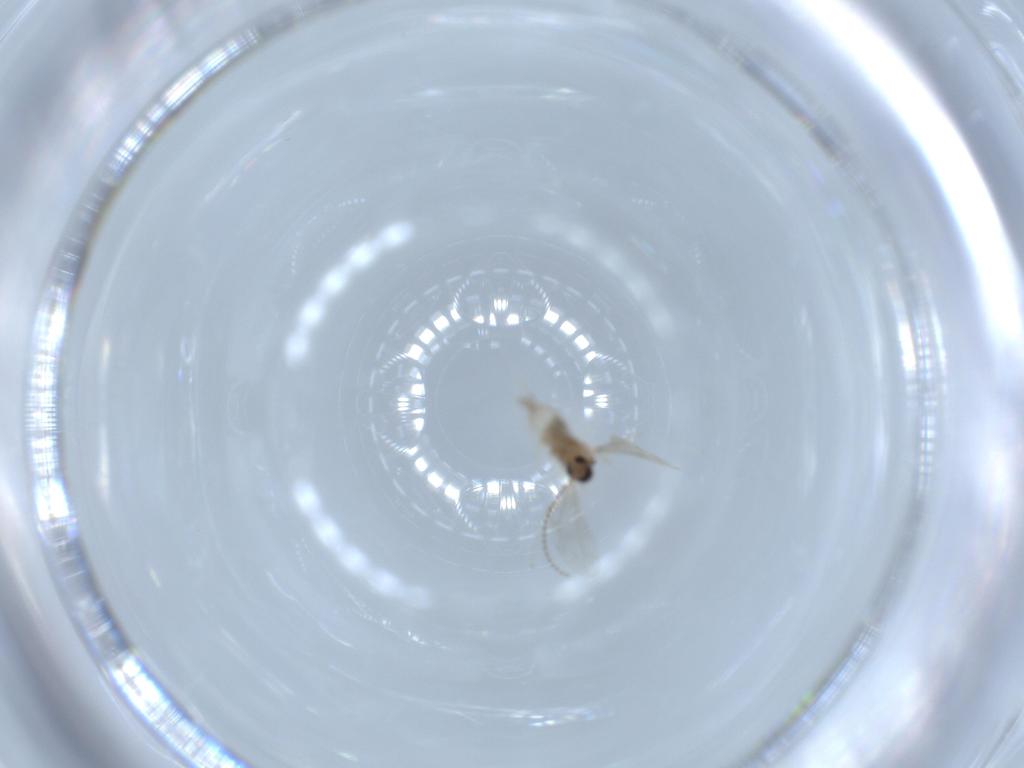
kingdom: Animalia
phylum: Arthropoda
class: Insecta
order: Diptera
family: Cecidomyiidae
